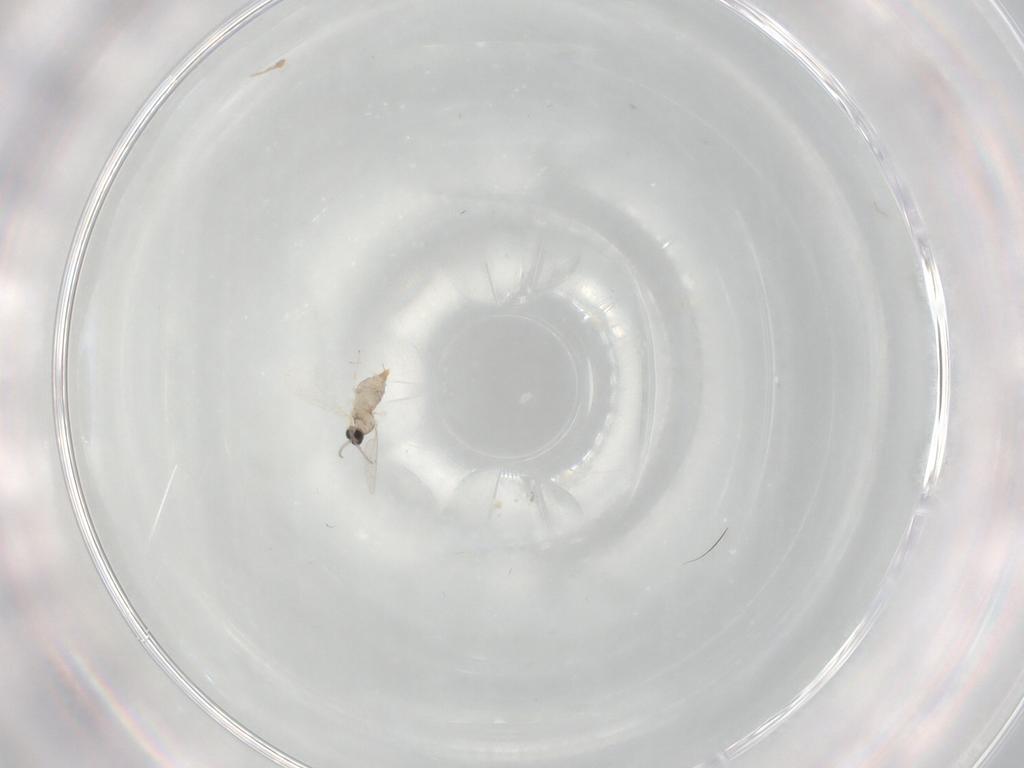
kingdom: Animalia
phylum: Arthropoda
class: Insecta
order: Diptera
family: Cecidomyiidae
